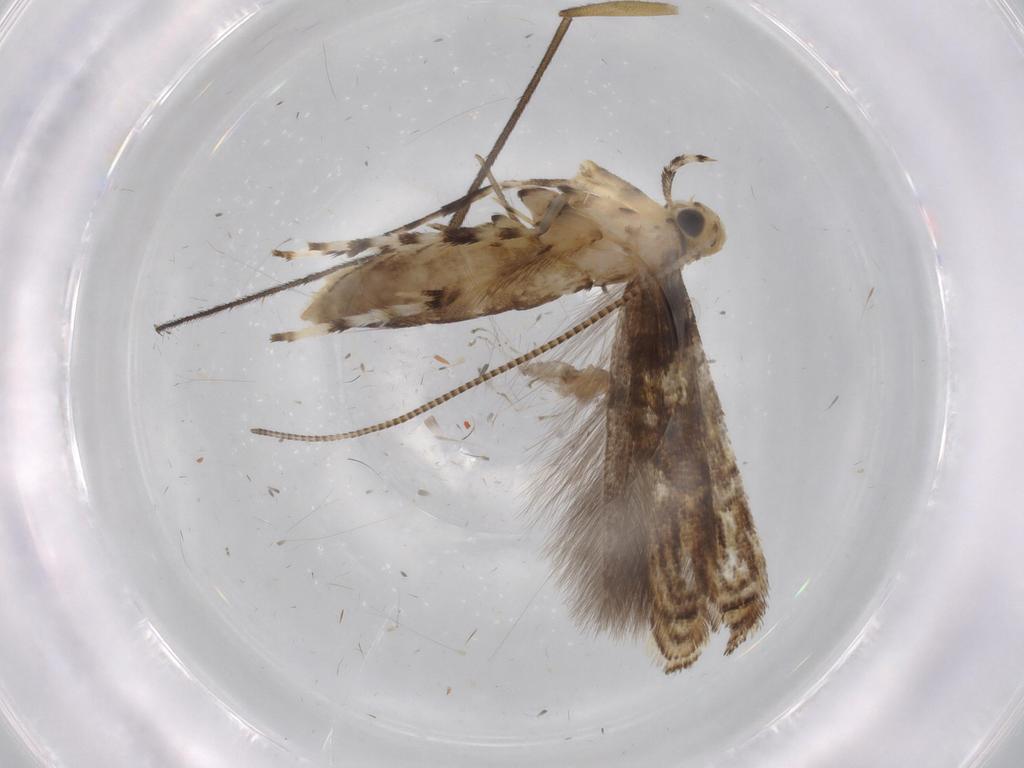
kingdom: Animalia
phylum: Arthropoda
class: Insecta
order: Lepidoptera
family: Gracillariidae
